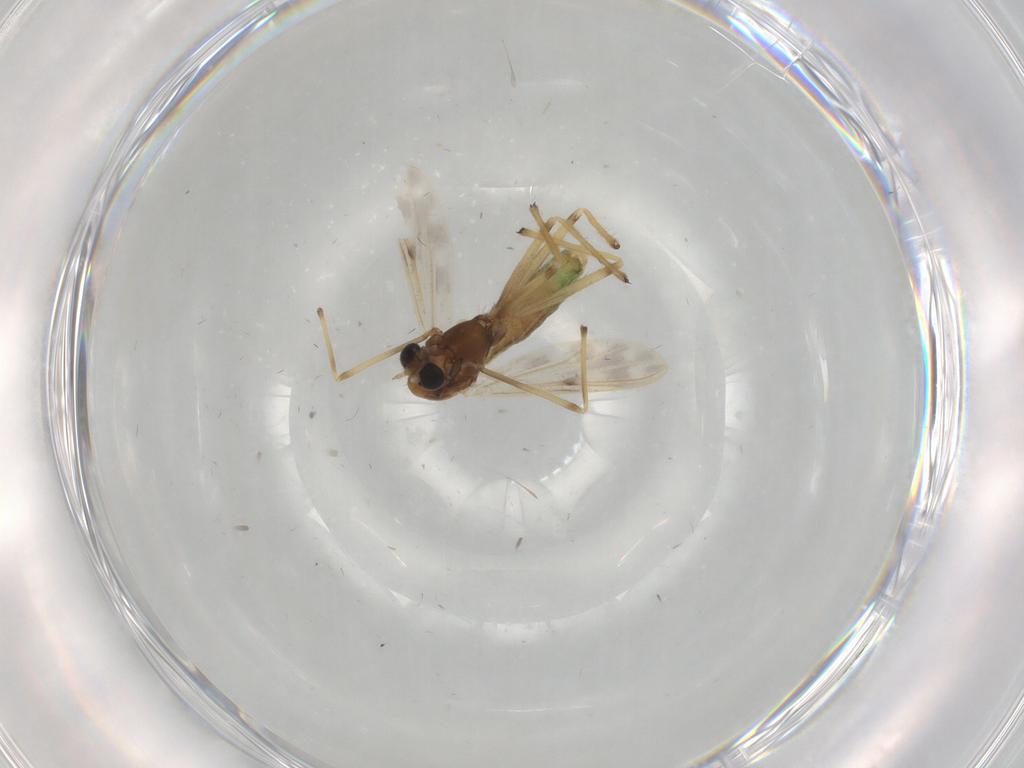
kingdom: Animalia
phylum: Arthropoda
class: Insecta
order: Diptera
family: Chironomidae
